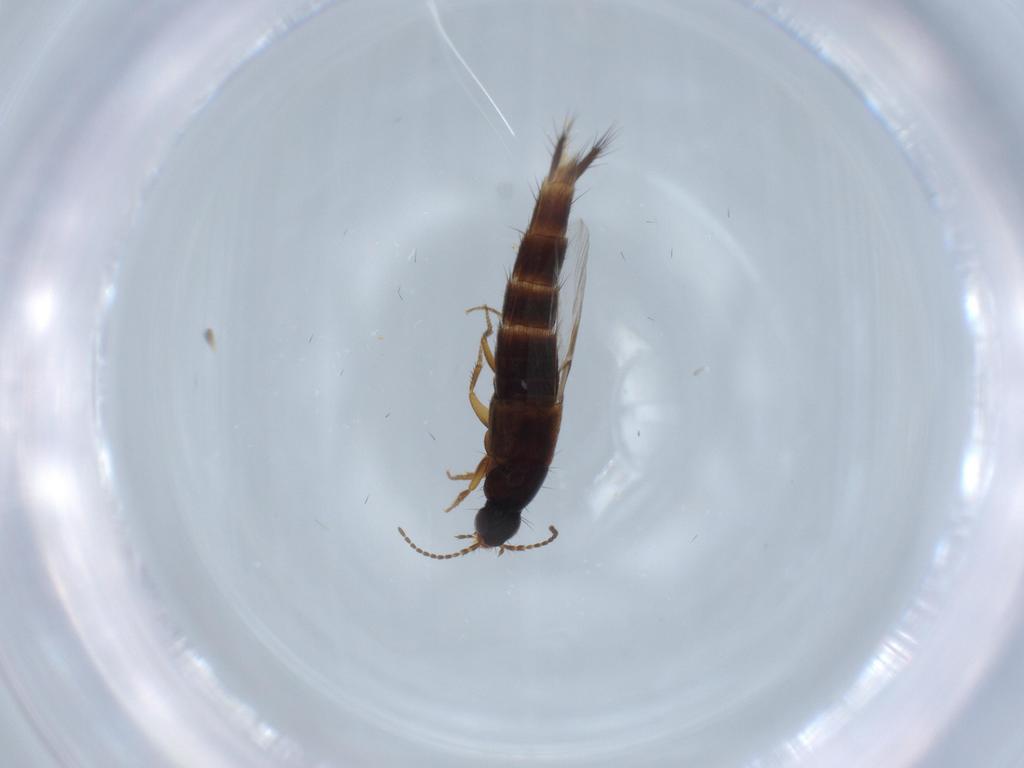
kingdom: Animalia
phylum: Arthropoda
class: Insecta
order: Coleoptera
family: Staphylinidae
